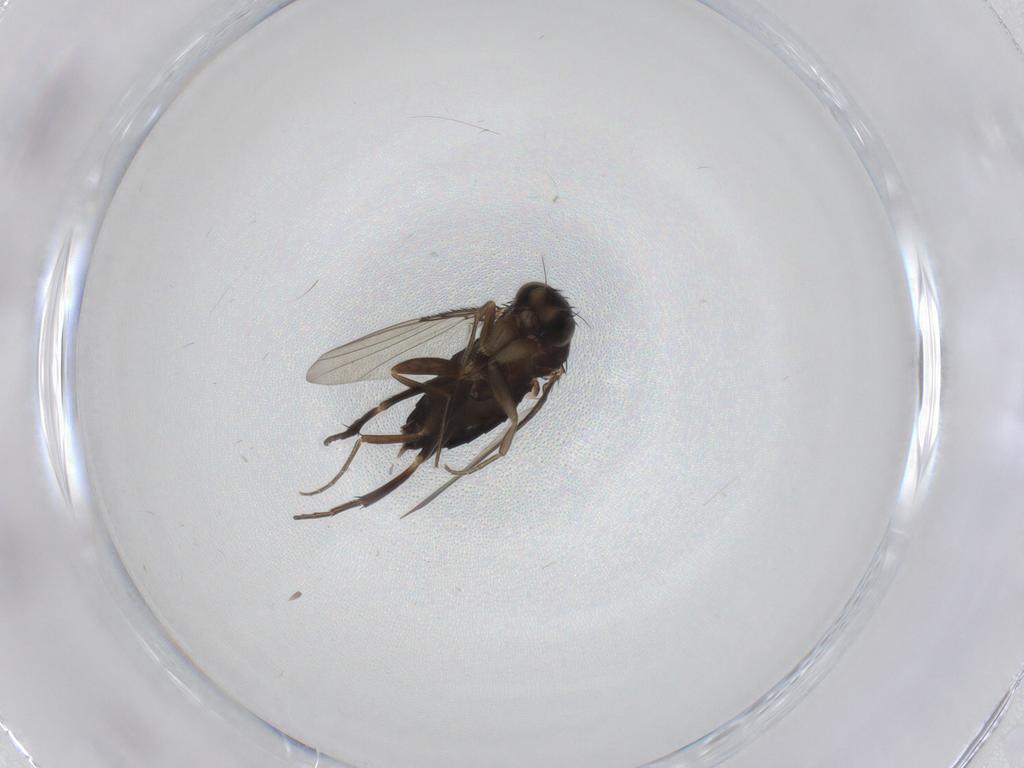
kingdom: Animalia
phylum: Arthropoda
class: Insecta
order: Diptera
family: Phoridae
